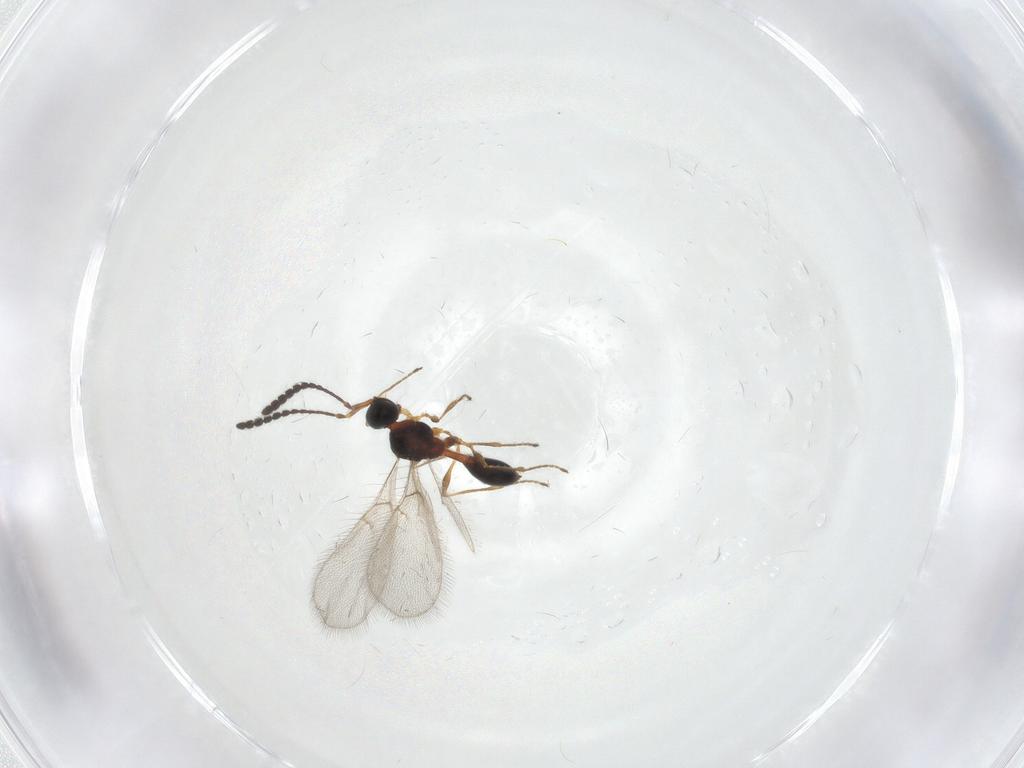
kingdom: Animalia
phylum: Arthropoda
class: Insecta
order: Hymenoptera
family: Diapriidae
